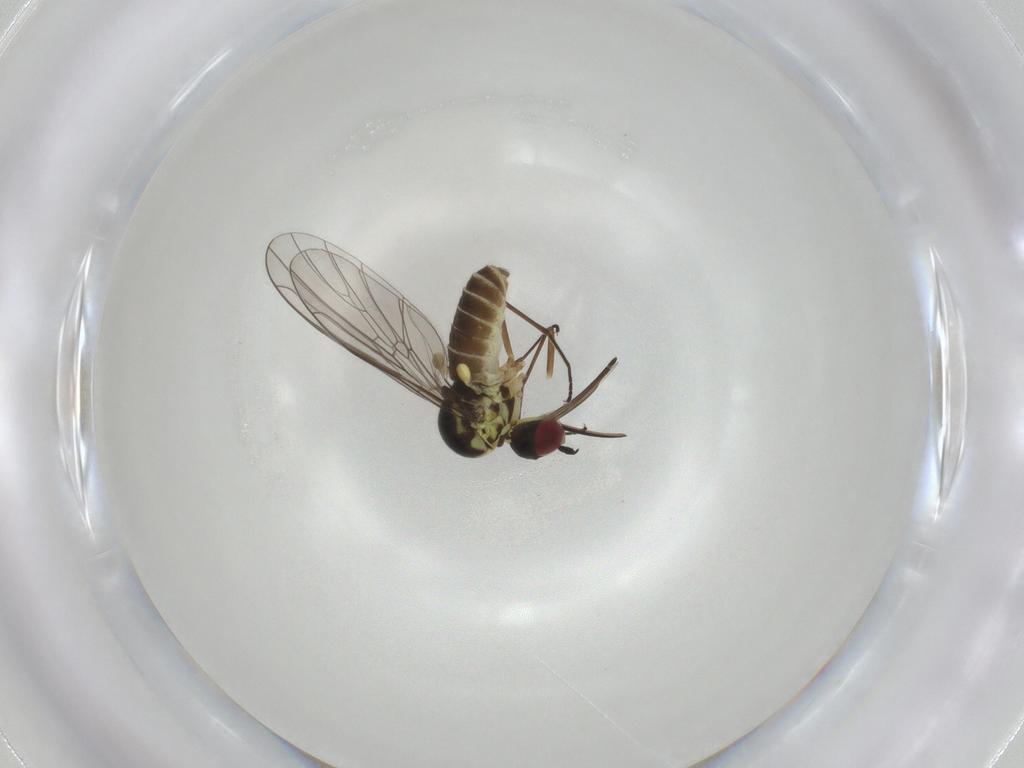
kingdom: Animalia
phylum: Arthropoda
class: Insecta
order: Diptera
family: Bombyliidae
